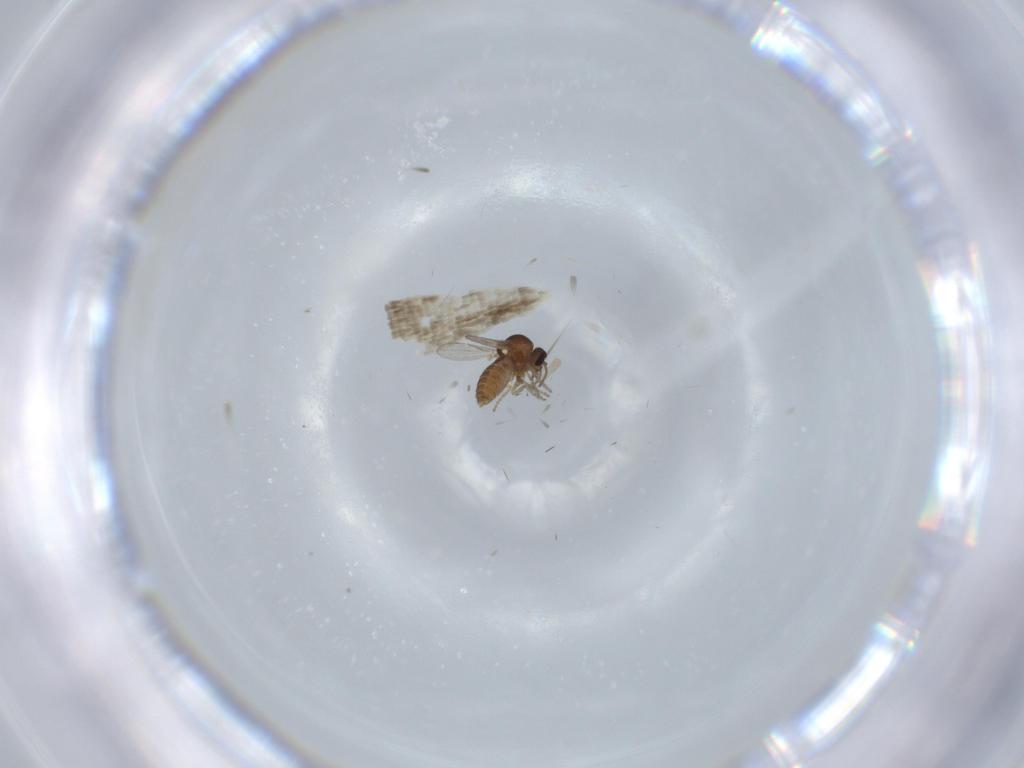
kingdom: Animalia
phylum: Arthropoda
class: Insecta
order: Diptera
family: Ceratopogonidae
